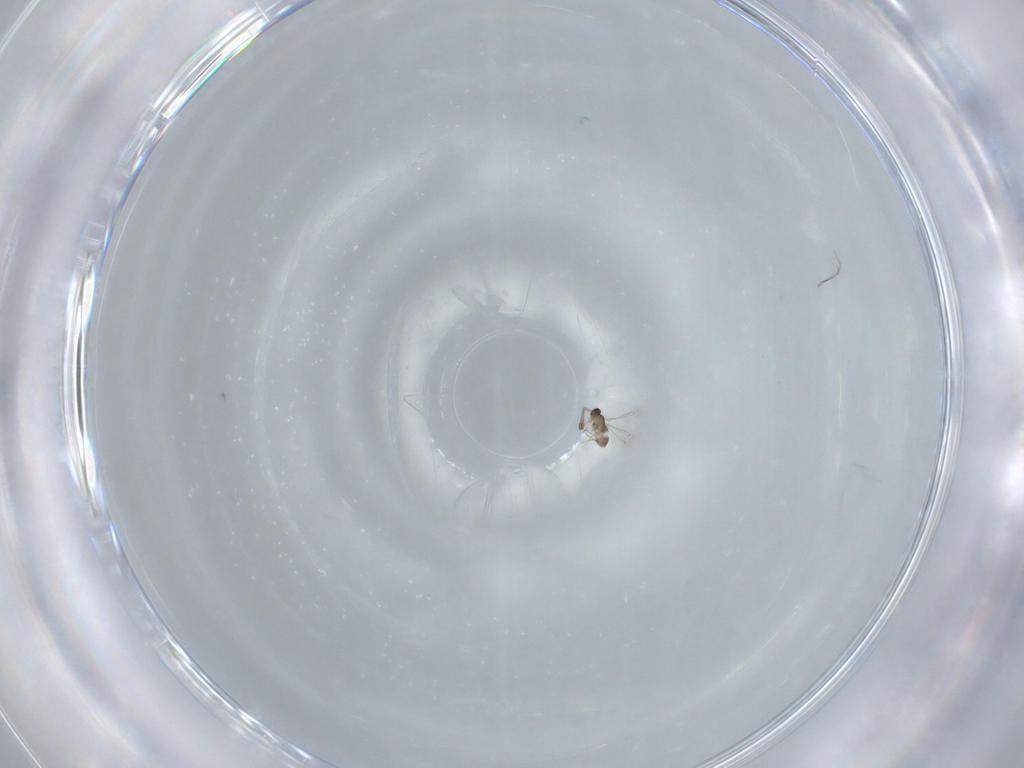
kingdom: Animalia
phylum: Arthropoda
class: Insecta
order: Hymenoptera
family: Mymaridae
